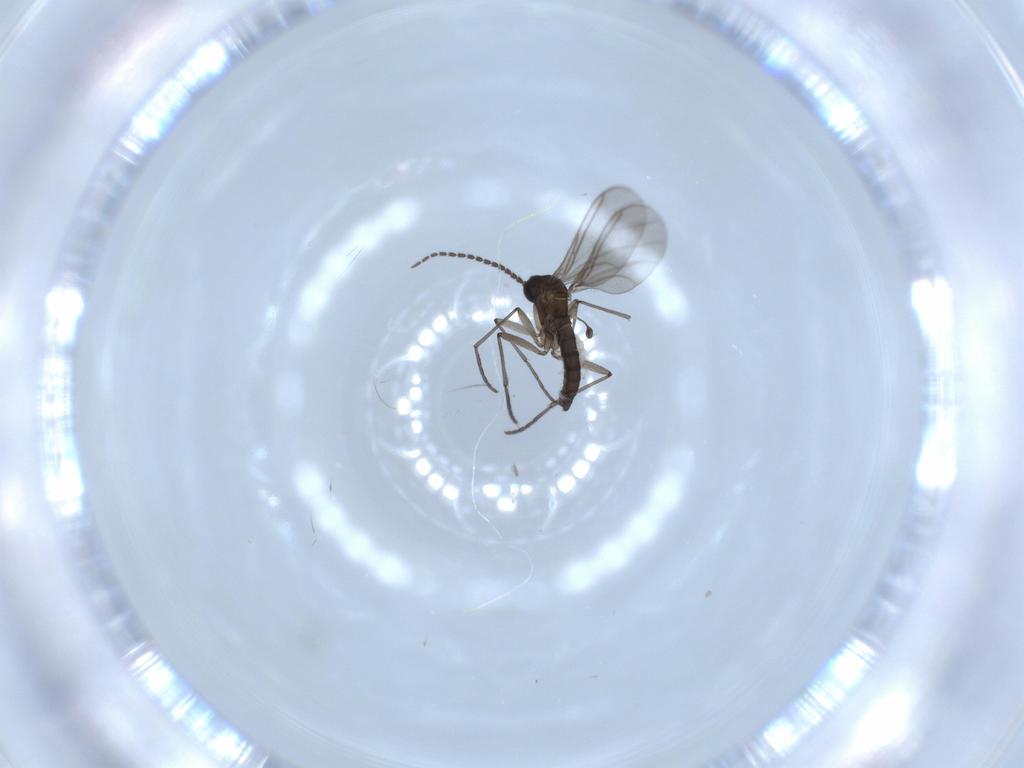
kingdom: Animalia
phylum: Arthropoda
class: Insecta
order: Diptera
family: Sciaridae
